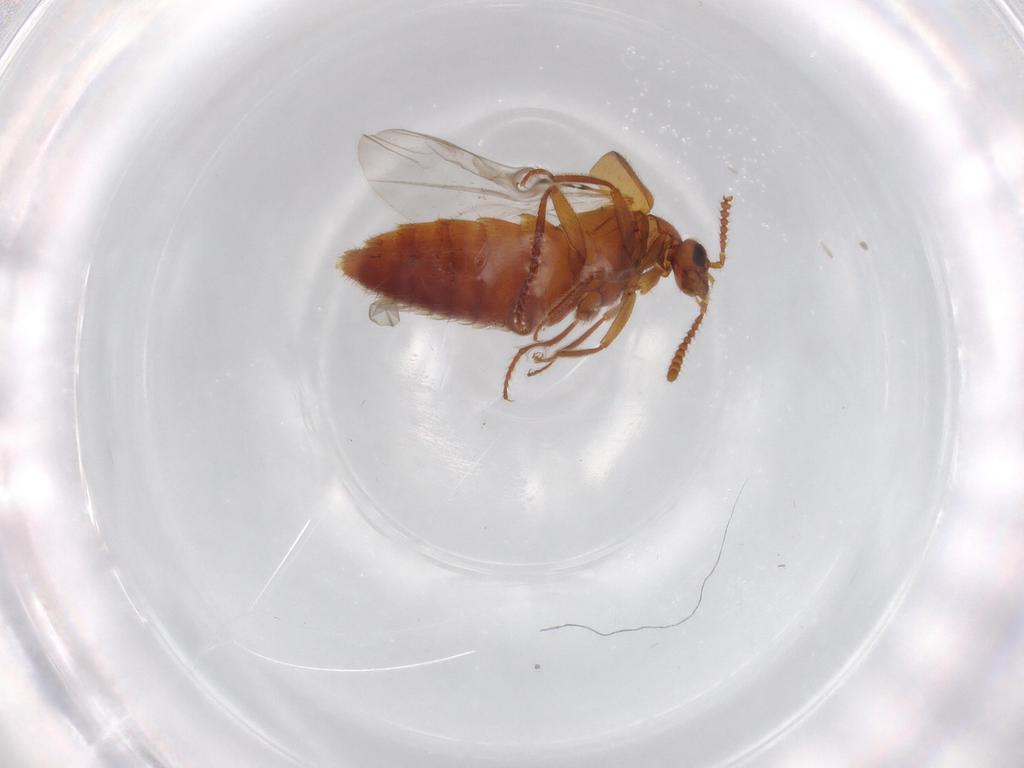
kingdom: Animalia
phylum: Arthropoda
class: Insecta
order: Coleoptera
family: Staphylinidae
